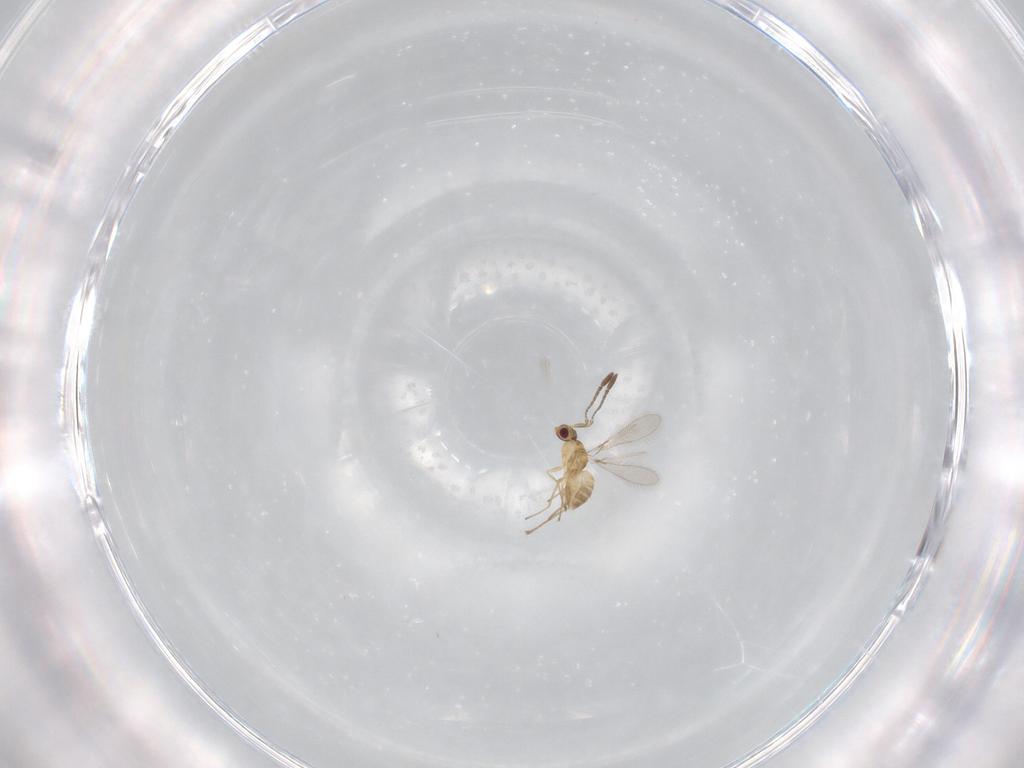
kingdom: Animalia
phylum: Arthropoda
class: Insecta
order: Hymenoptera
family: Mymaridae
